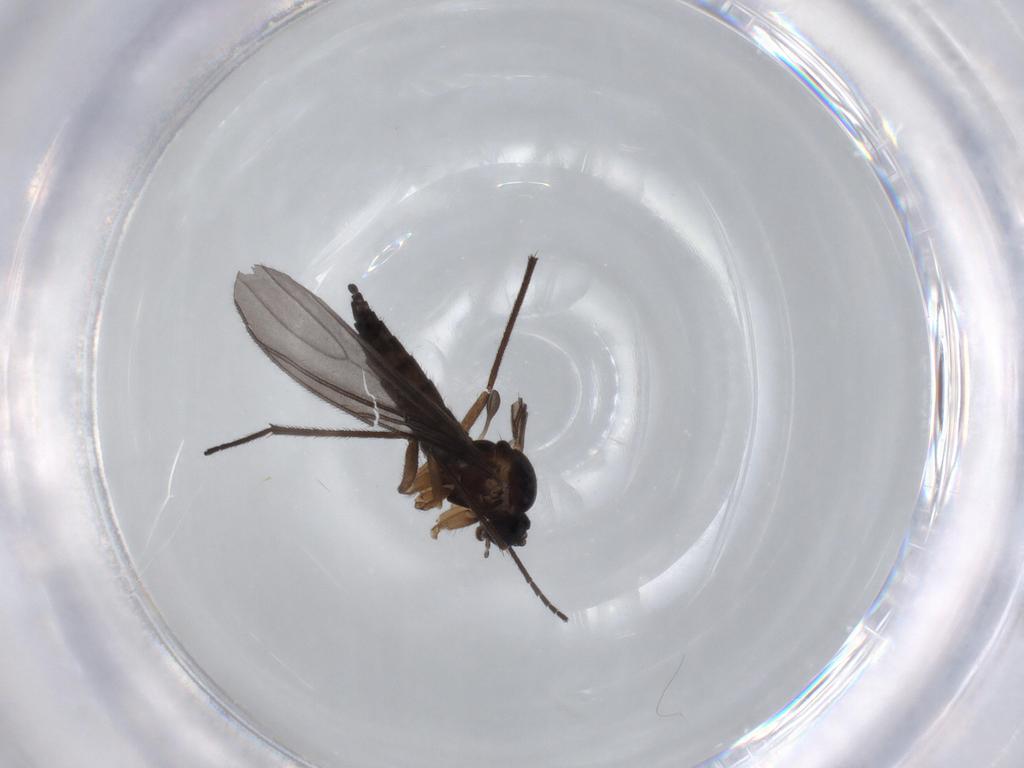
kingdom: Animalia
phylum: Arthropoda
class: Insecta
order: Diptera
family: Sciaridae
